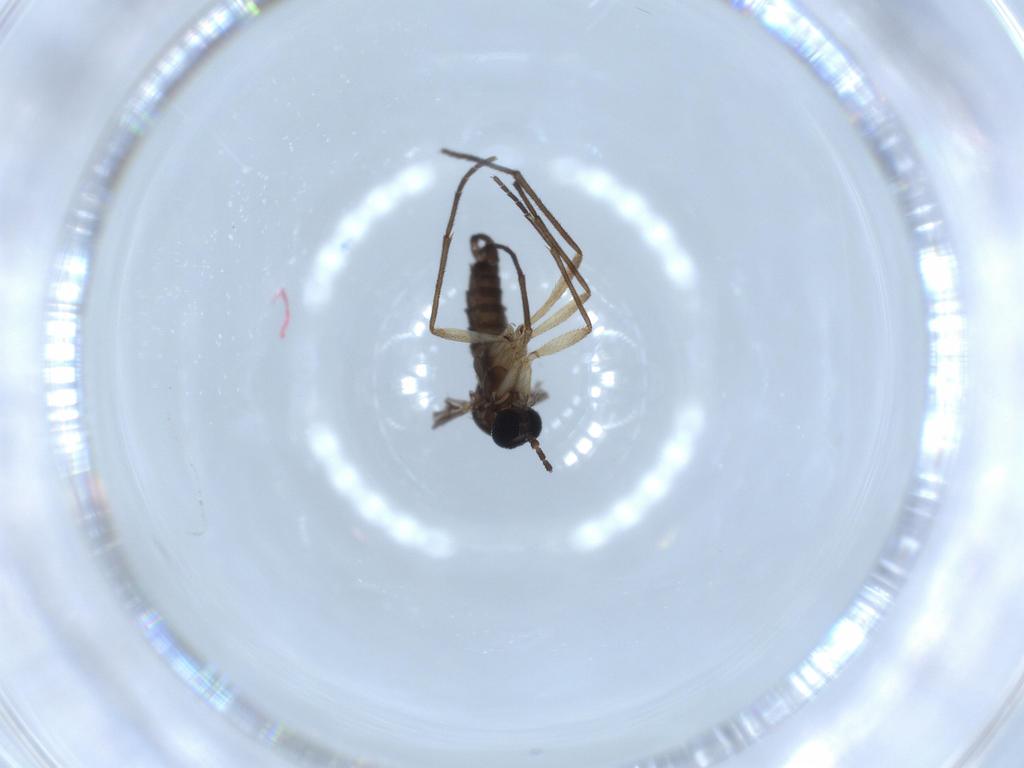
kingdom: Animalia
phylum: Arthropoda
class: Insecta
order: Diptera
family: Sciaridae
